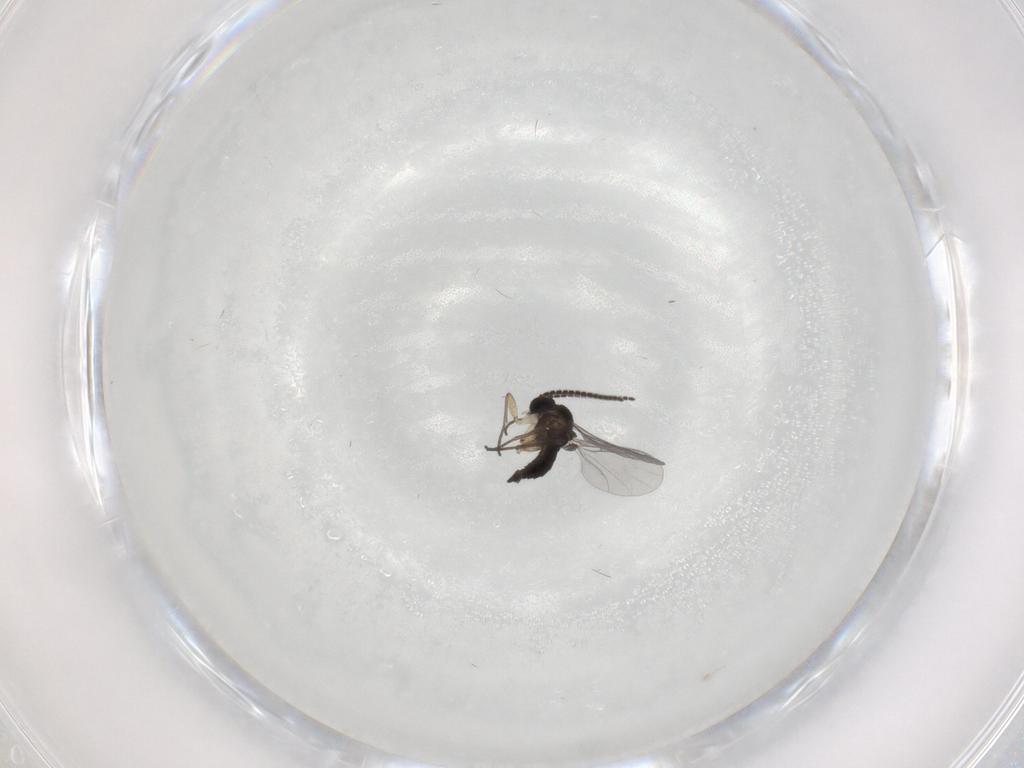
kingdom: Animalia
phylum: Arthropoda
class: Insecta
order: Diptera
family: Sciaridae
